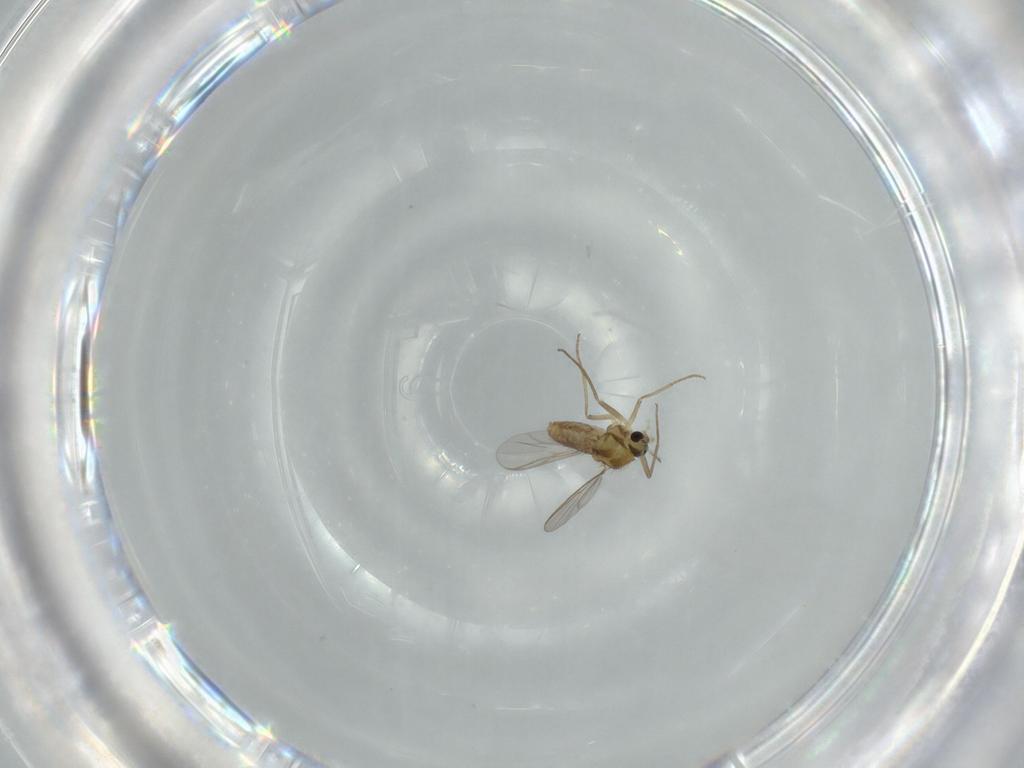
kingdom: Animalia
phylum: Arthropoda
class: Insecta
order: Diptera
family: Chironomidae
